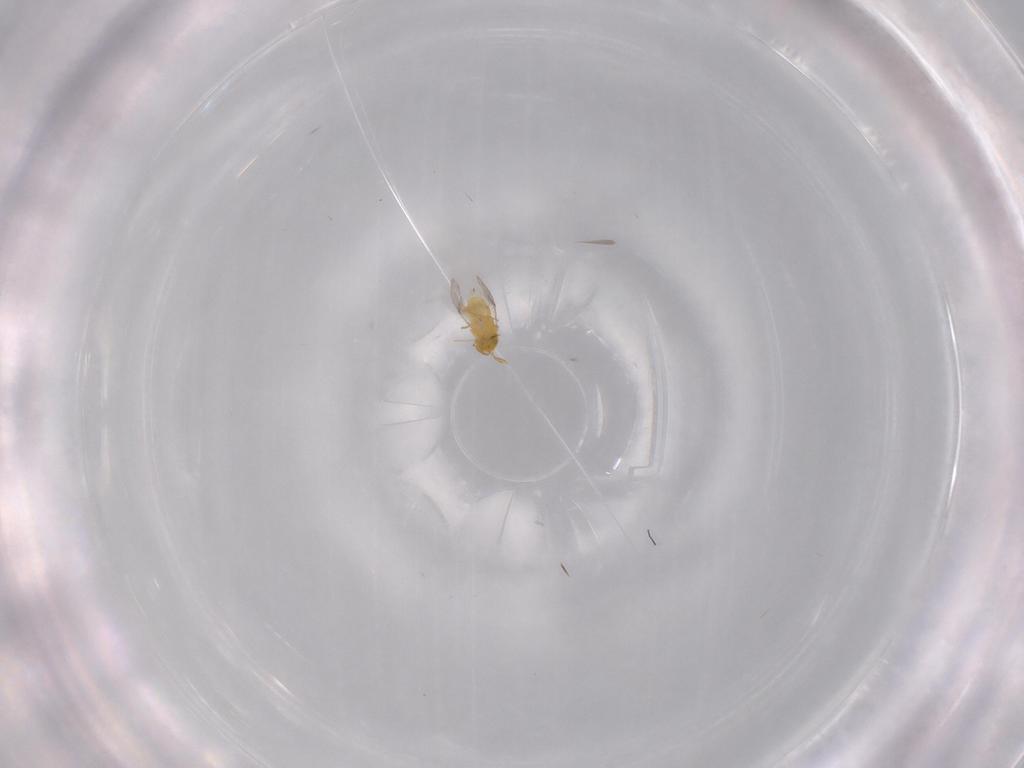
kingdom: Animalia
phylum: Arthropoda
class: Insecta
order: Hymenoptera
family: Encyrtidae
